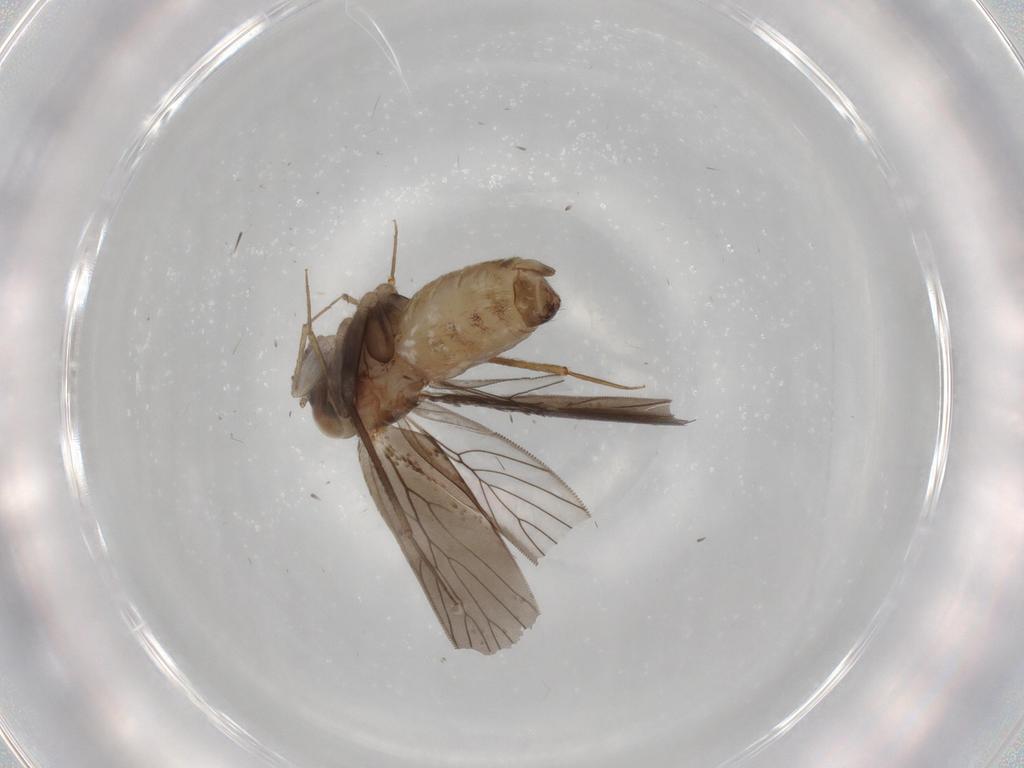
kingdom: Animalia
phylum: Arthropoda
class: Insecta
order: Psocodea
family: Lepidopsocidae
